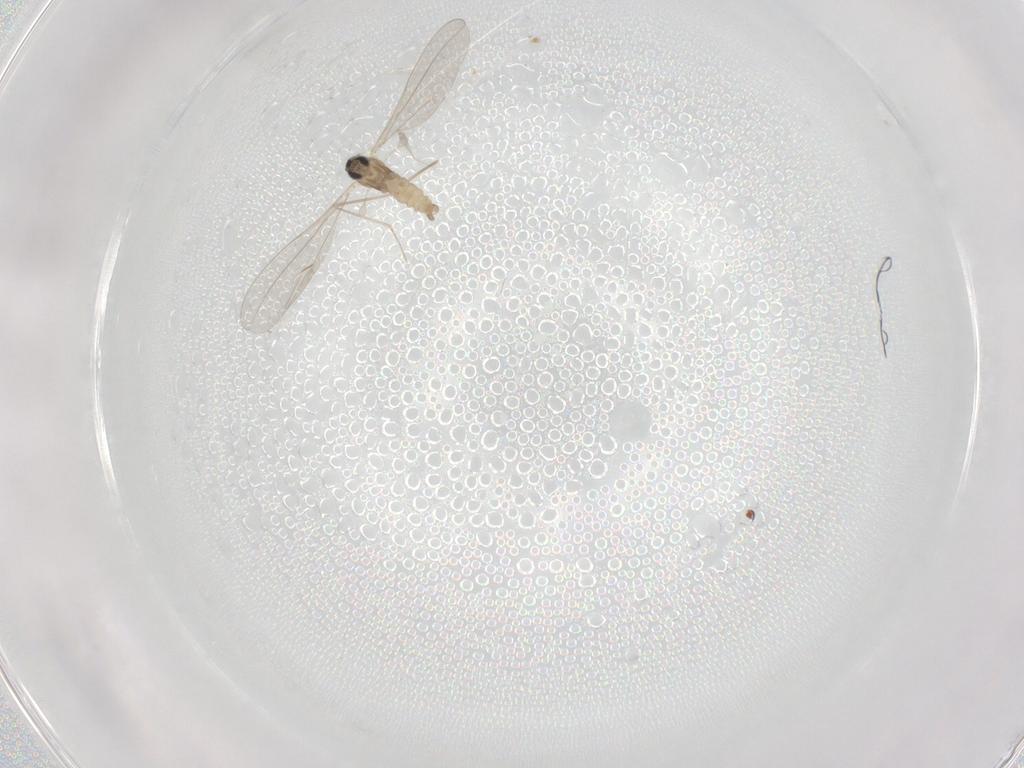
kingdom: Animalia
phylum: Arthropoda
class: Insecta
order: Diptera
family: Cecidomyiidae
